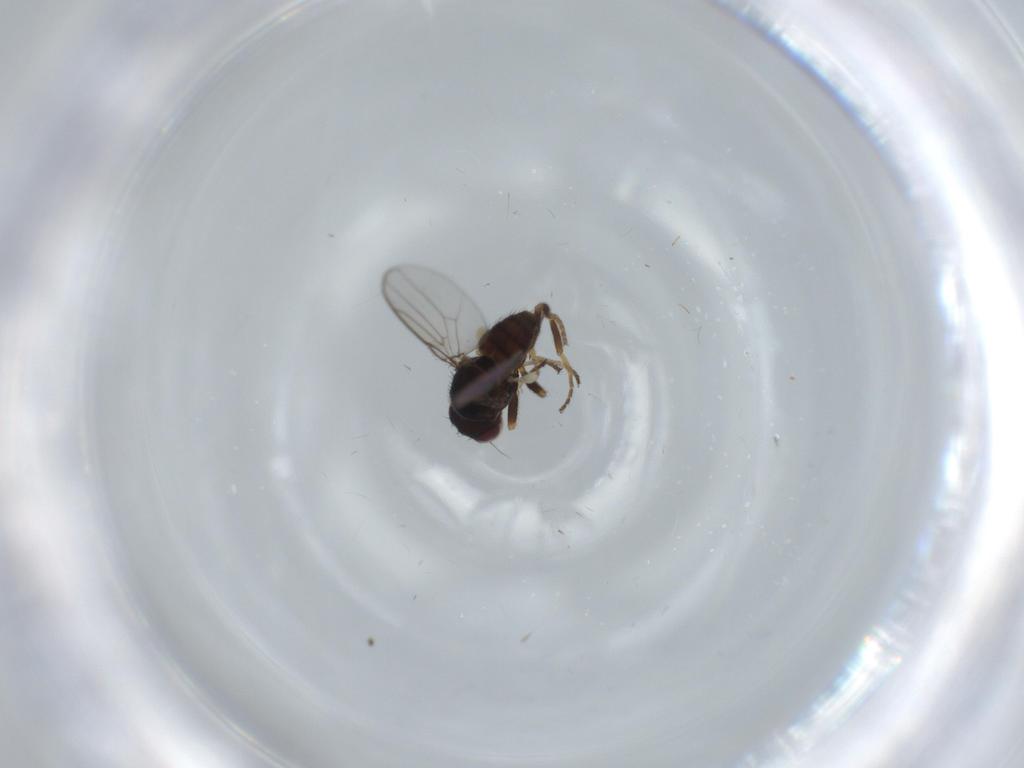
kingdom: Animalia
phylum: Arthropoda
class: Insecta
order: Diptera
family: Chloropidae
